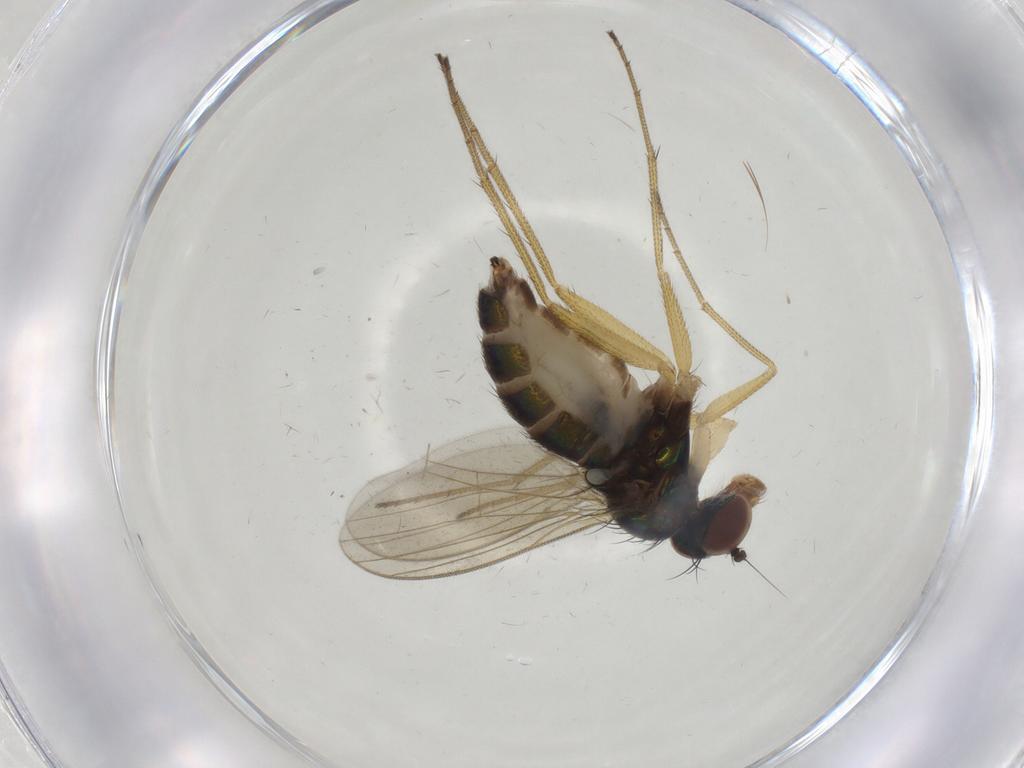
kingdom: Animalia
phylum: Arthropoda
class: Insecta
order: Diptera
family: Dolichopodidae
